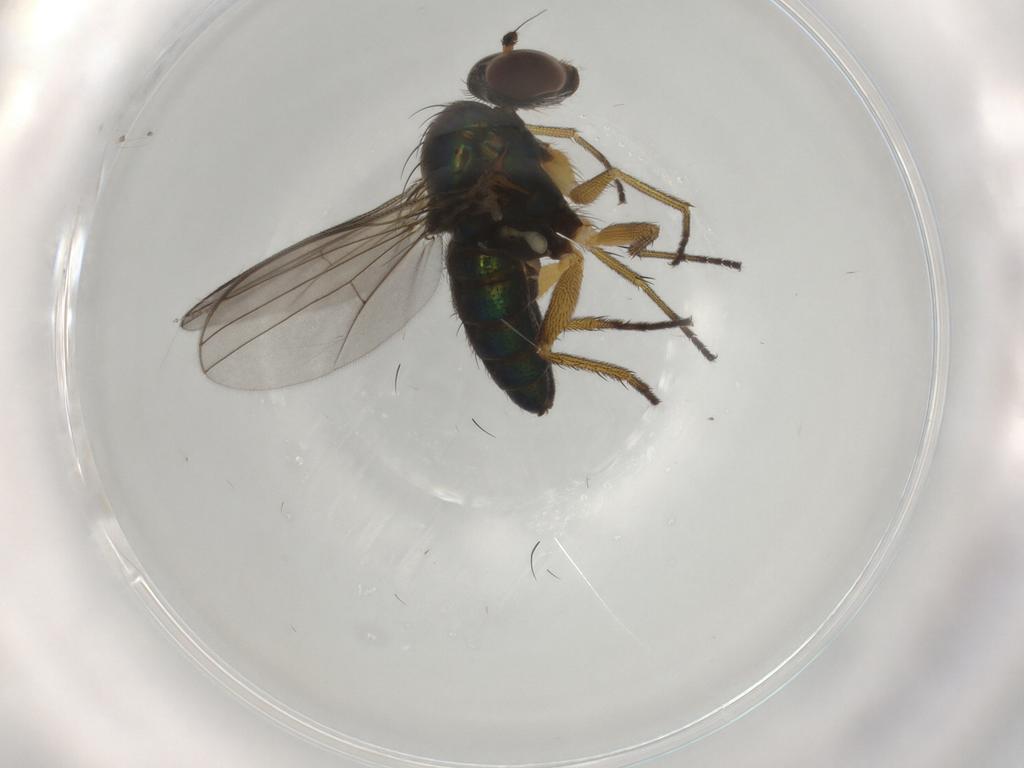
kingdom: Animalia
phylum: Arthropoda
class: Insecta
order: Diptera
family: Dolichopodidae
